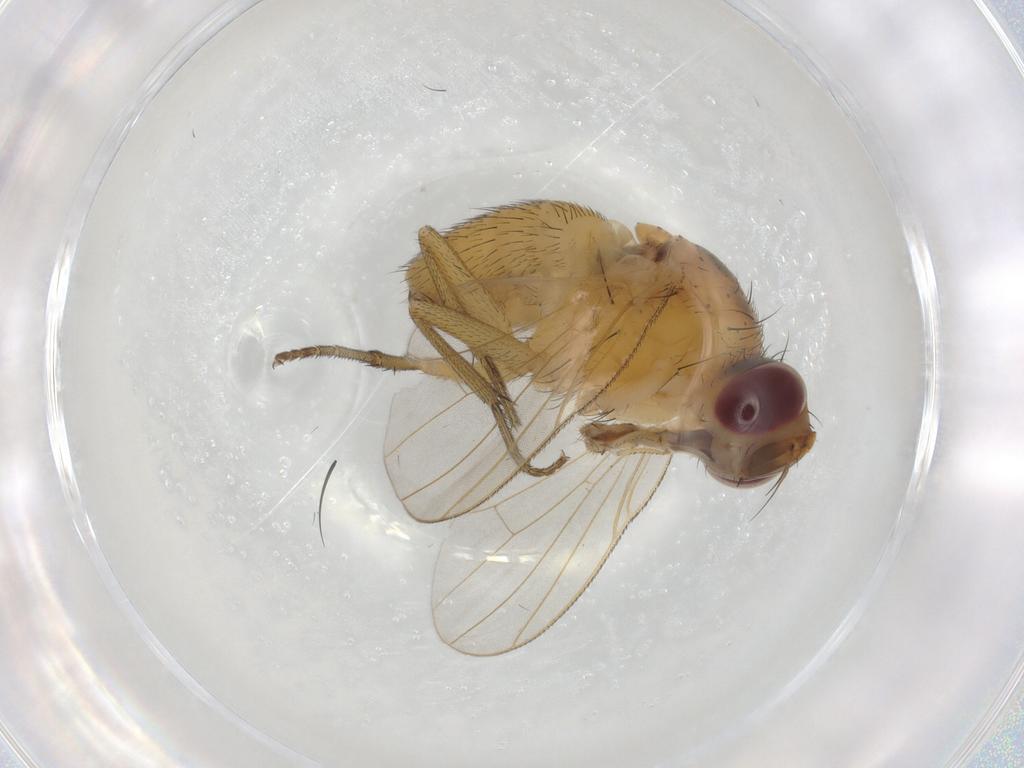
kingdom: Animalia
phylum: Arthropoda
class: Insecta
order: Diptera
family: Muscidae
